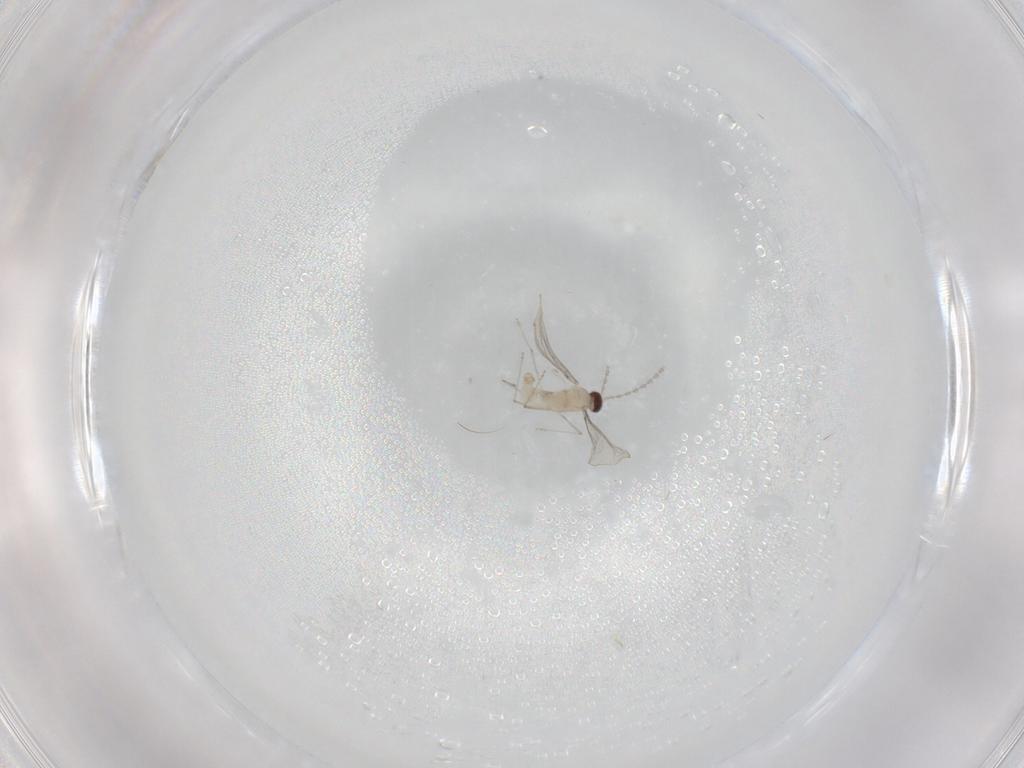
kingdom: Animalia
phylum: Arthropoda
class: Insecta
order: Diptera
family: Cecidomyiidae
